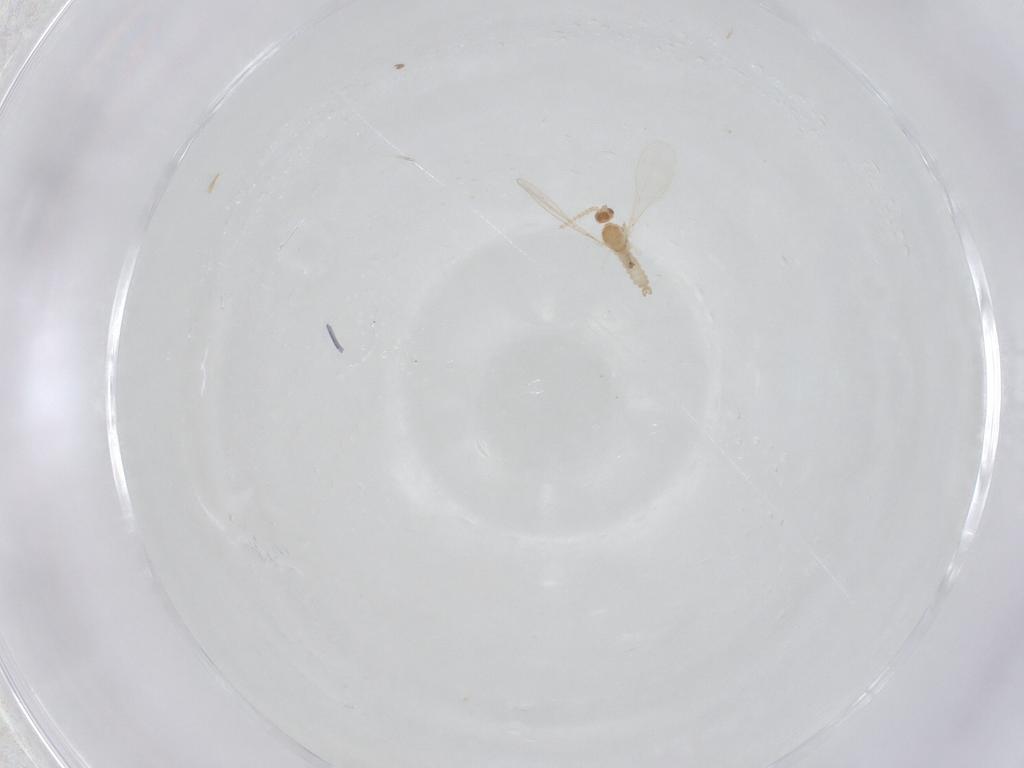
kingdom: Animalia
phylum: Arthropoda
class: Insecta
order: Diptera
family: Cecidomyiidae
